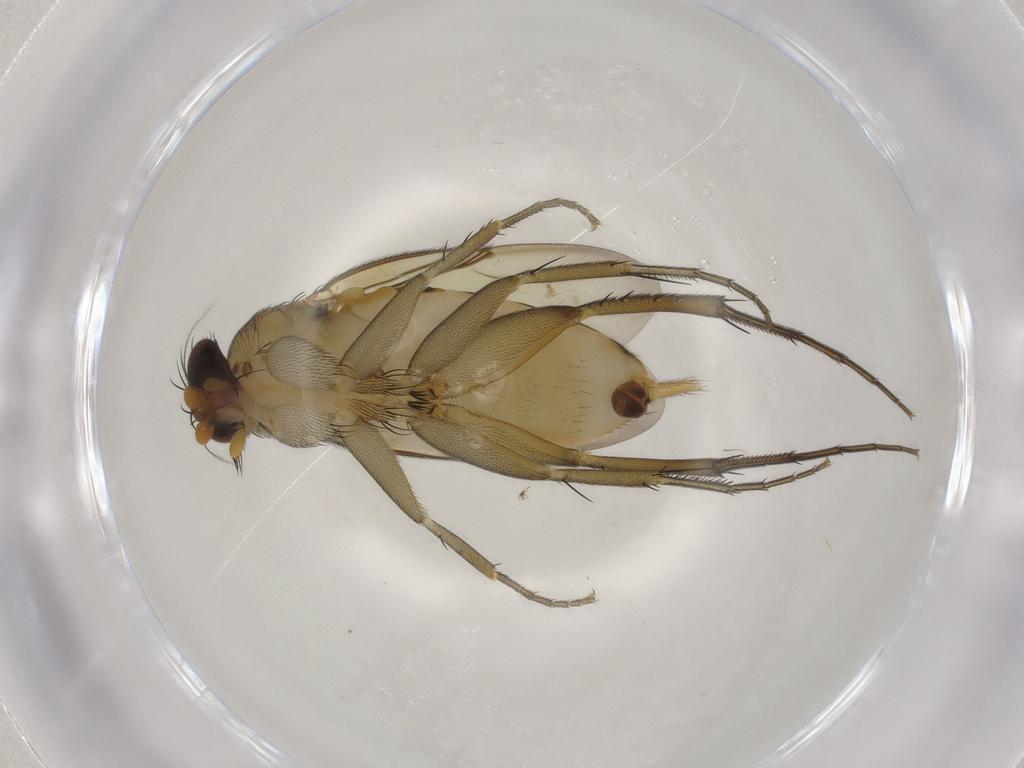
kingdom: Animalia
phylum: Arthropoda
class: Insecta
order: Diptera
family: Phoridae
